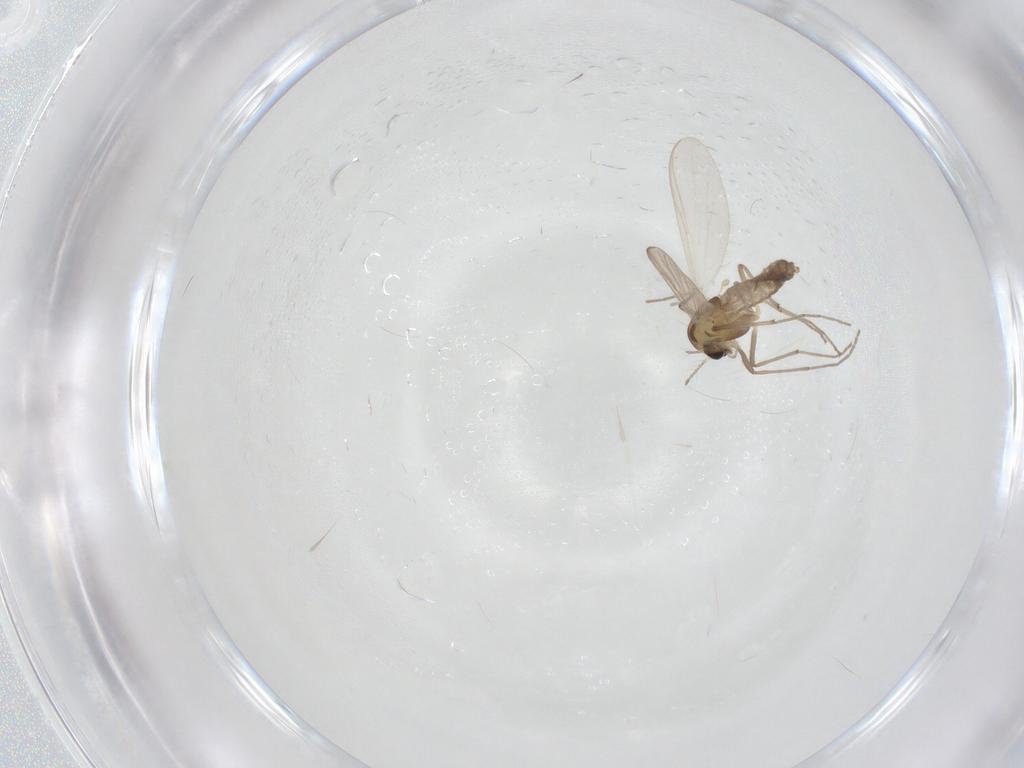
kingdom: Animalia
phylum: Arthropoda
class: Insecta
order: Diptera
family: Chironomidae
